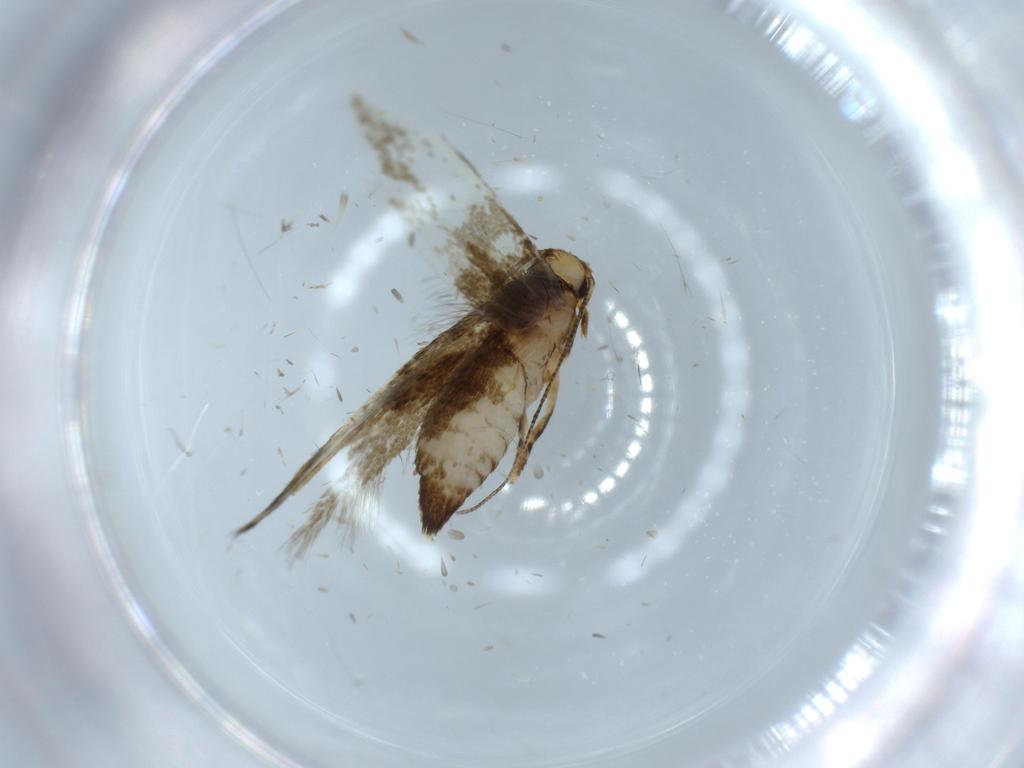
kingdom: Animalia
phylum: Arthropoda
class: Insecta
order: Lepidoptera
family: Tineidae
